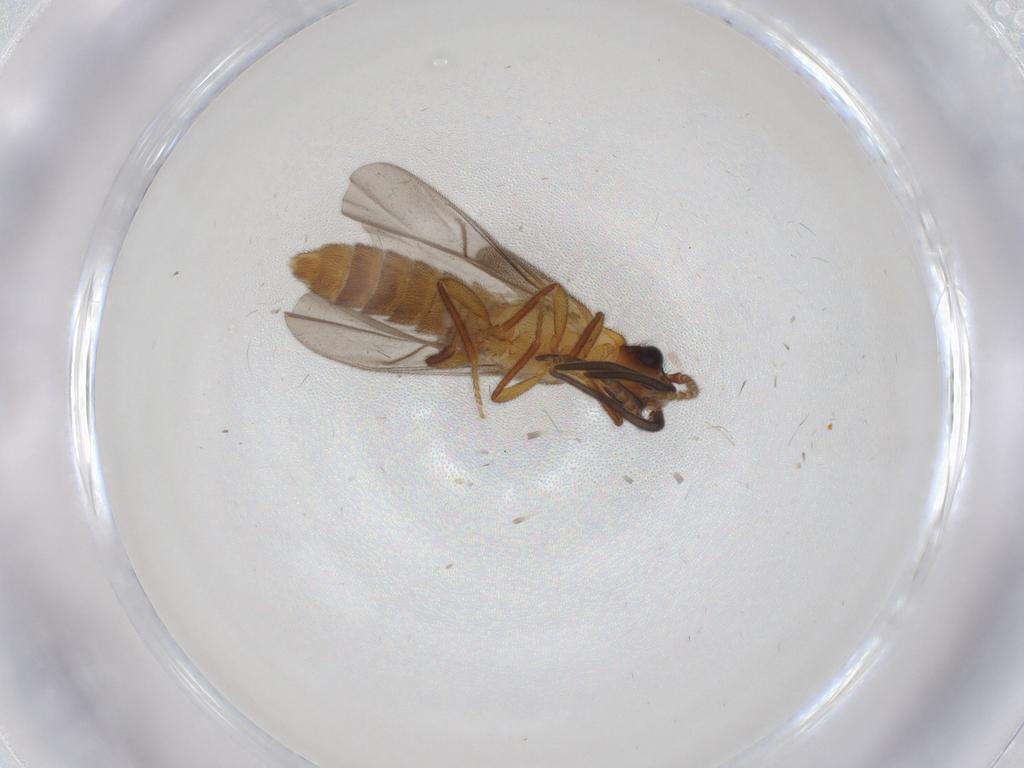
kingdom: Animalia
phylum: Arthropoda
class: Insecta
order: Coleoptera
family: Omethidae
